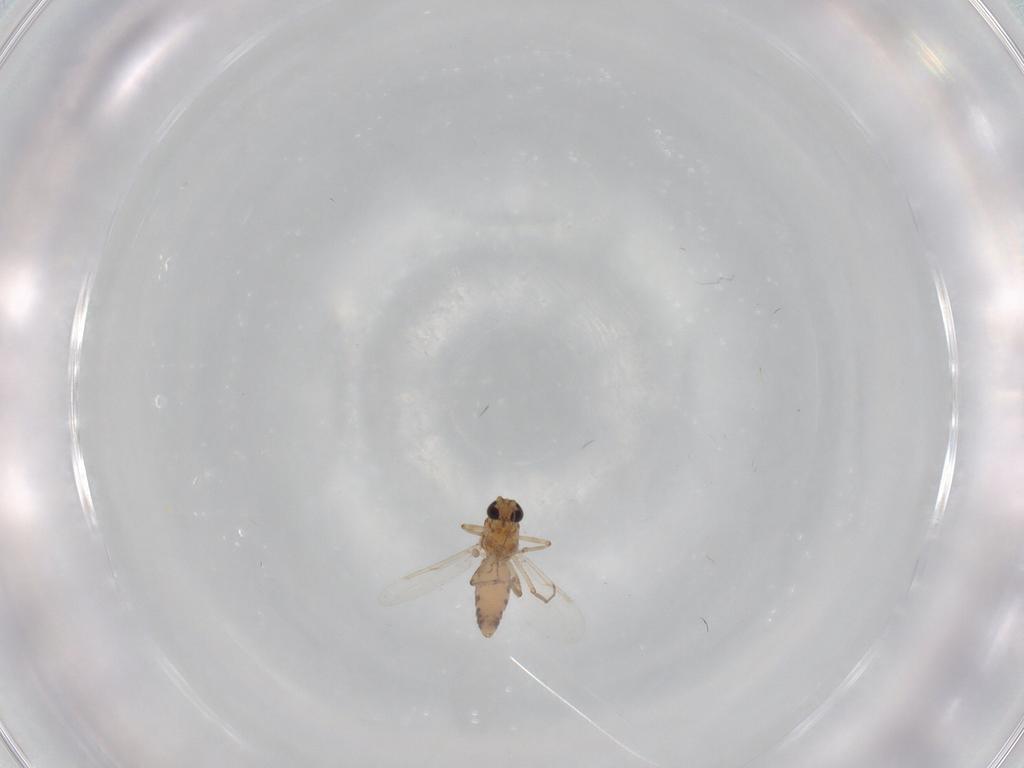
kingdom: Animalia
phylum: Arthropoda
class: Insecta
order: Diptera
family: Ceratopogonidae
